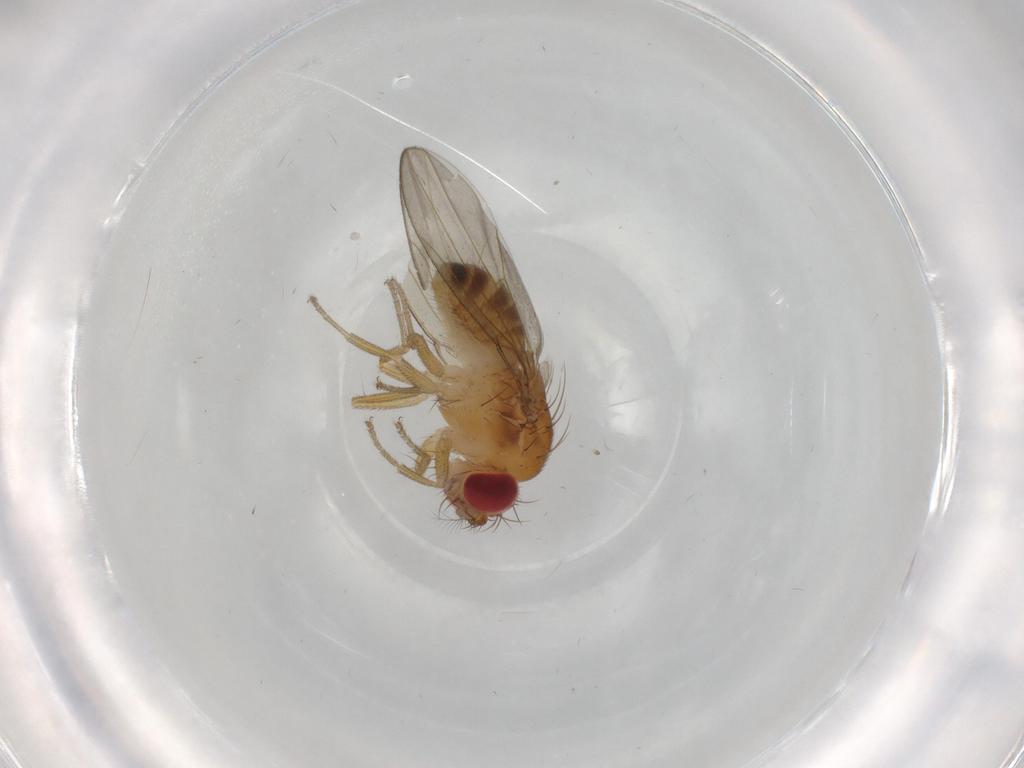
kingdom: Animalia
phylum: Arthropoda
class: Insecta
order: Diptera
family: Drosophilidae
